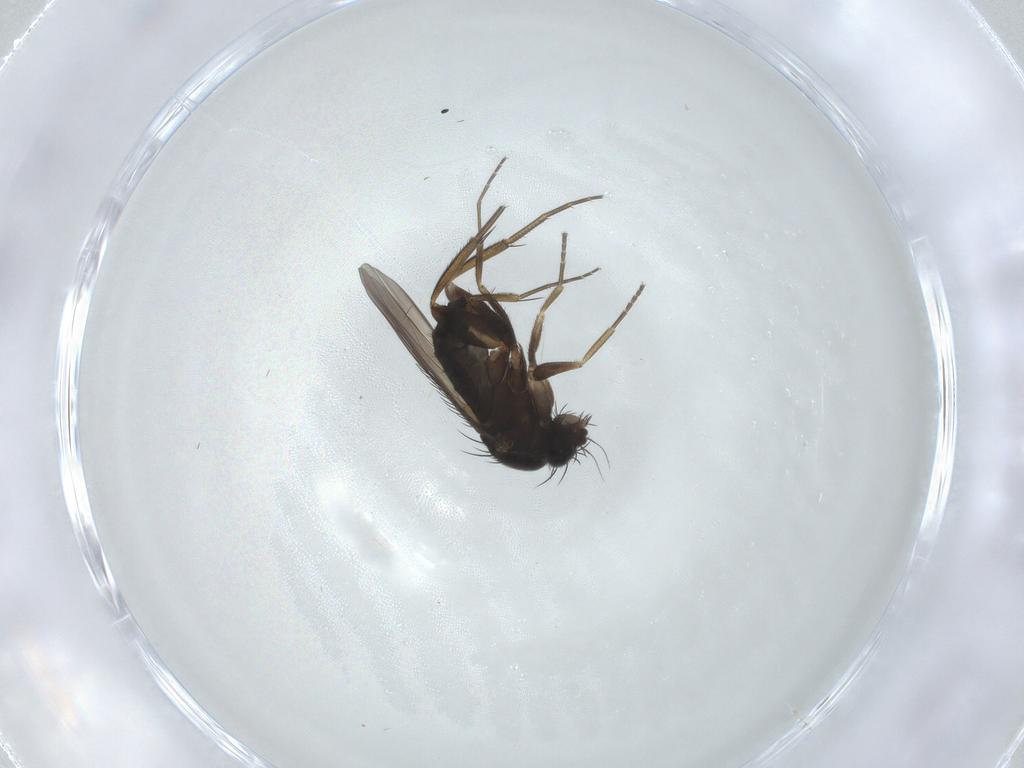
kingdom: Animalia
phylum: Arthropoda
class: Insecta
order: Diptera
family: Phoridae
